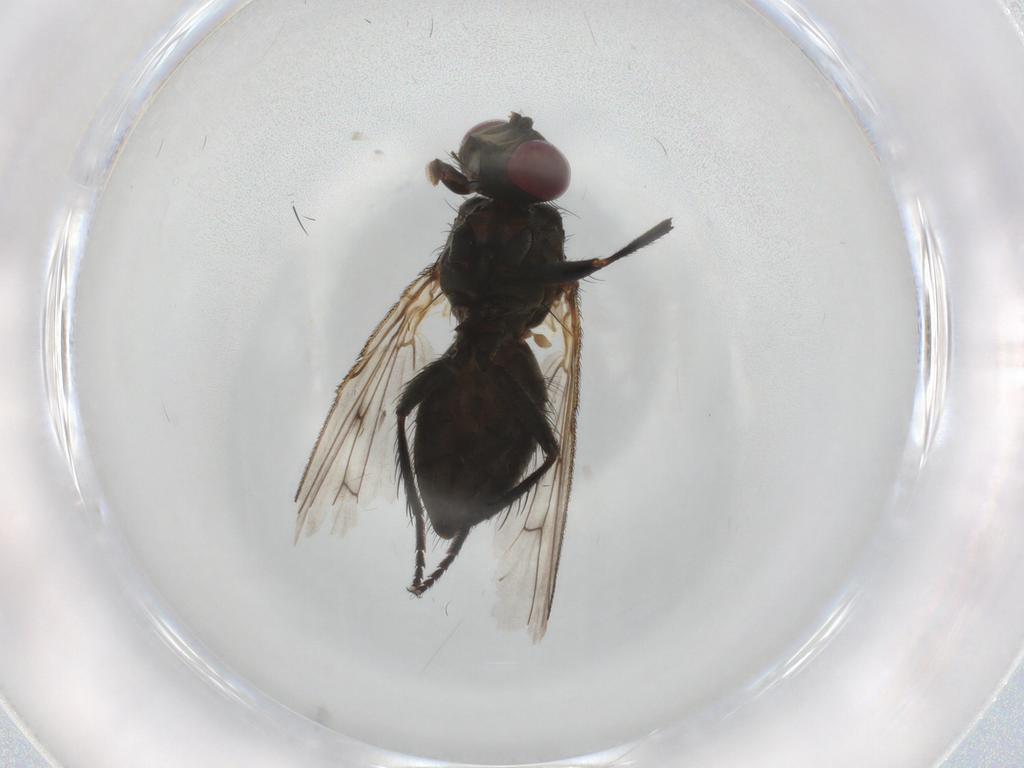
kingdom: Animalia
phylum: Arthropoda
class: Insecta
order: Diptera
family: Muscidae
